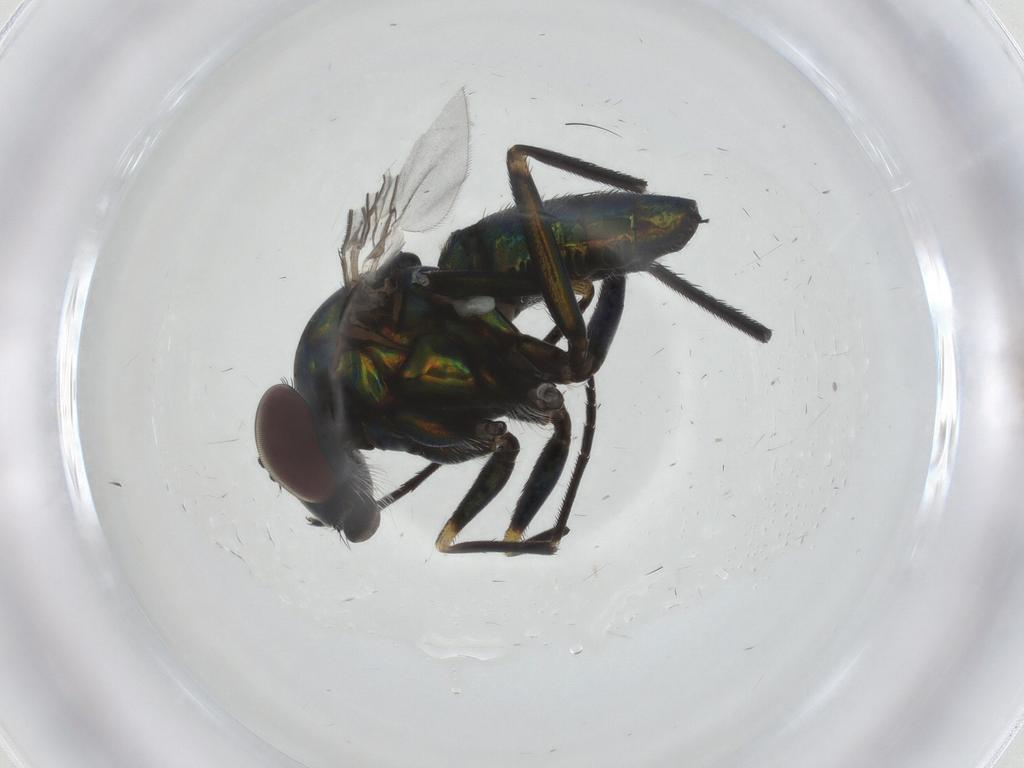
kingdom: Animalia
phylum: Arthropoda
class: Insecta
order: Diptera
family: Dolichopodidae
